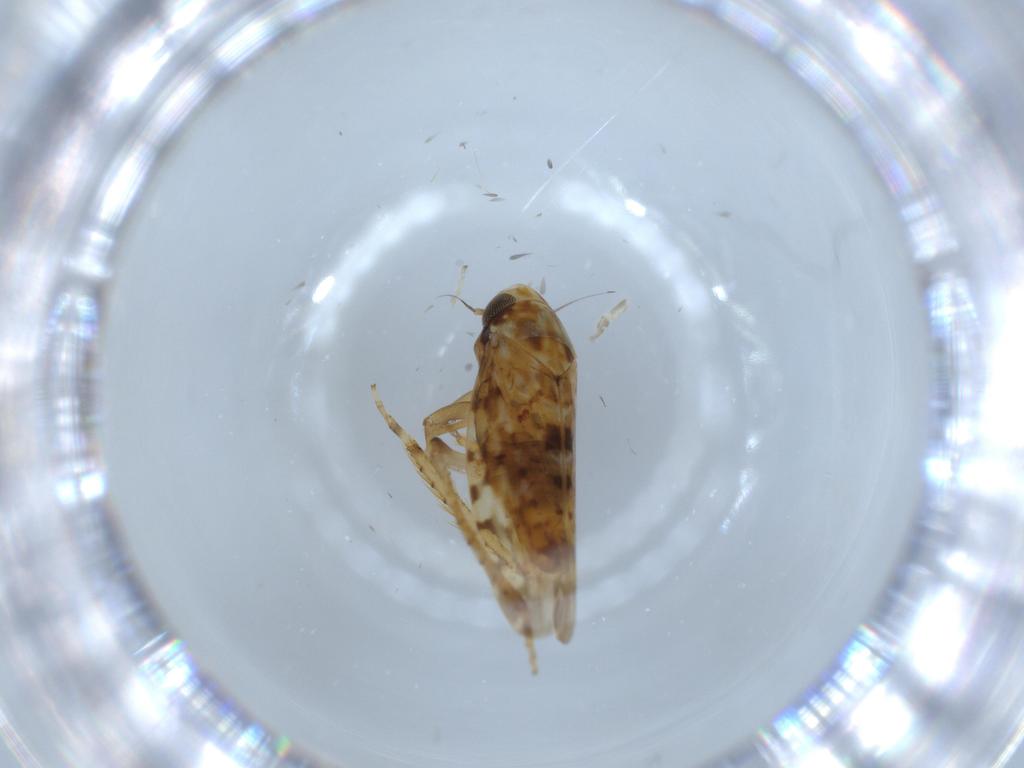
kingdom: Animalia
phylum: Arthropoda
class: Insecta
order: Hemiptera
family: Cicadellidae
